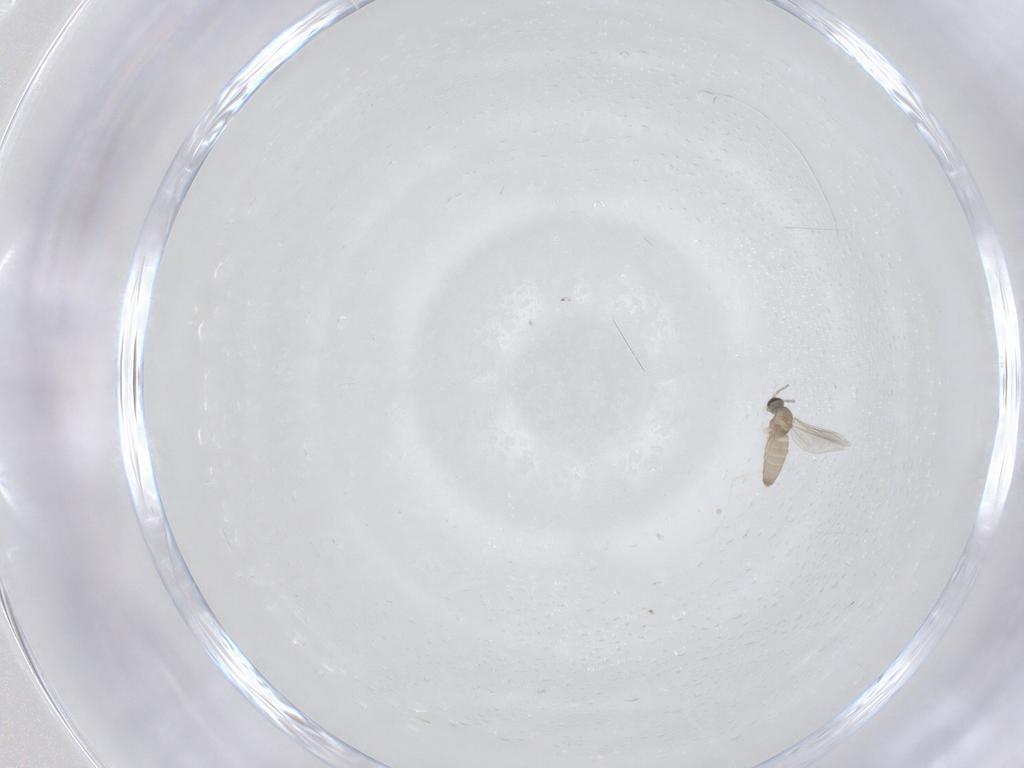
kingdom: Animalia
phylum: Arthropoda
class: Insecta
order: Diptera
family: Cecidomyiidae
